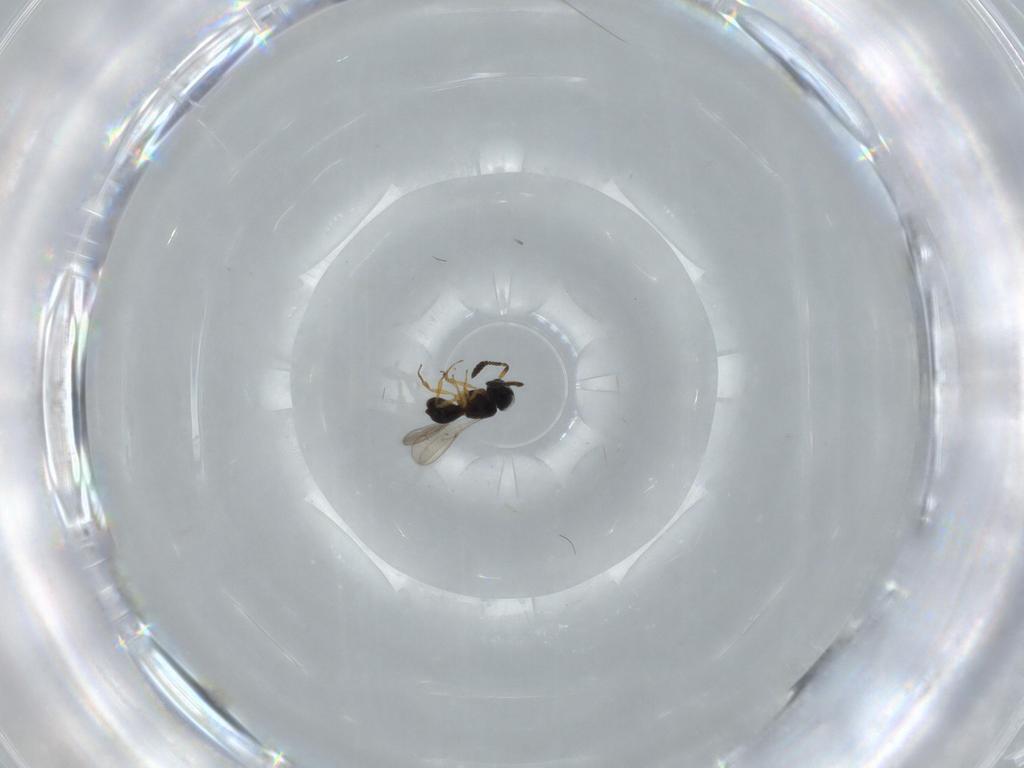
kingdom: Animalia
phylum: Arthropoda
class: Insecta
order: Hymenoptera
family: Scelionidae
